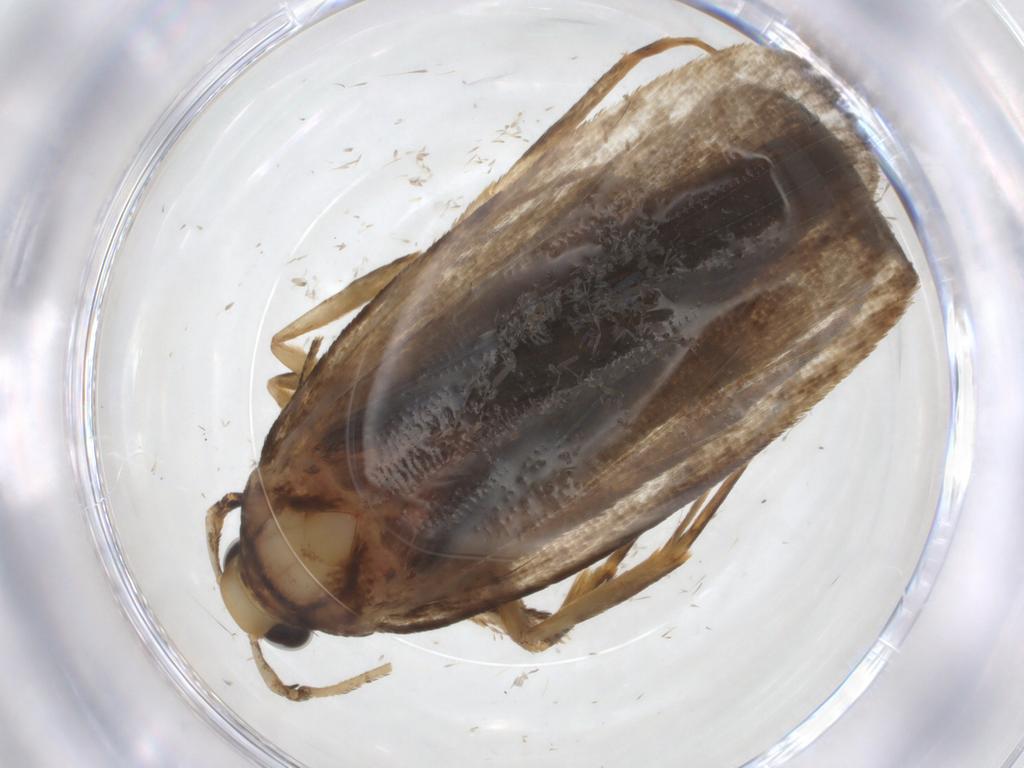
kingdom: Animalia
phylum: Arthropoda
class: Insecta
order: Lepidoptera
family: Autostichidae
